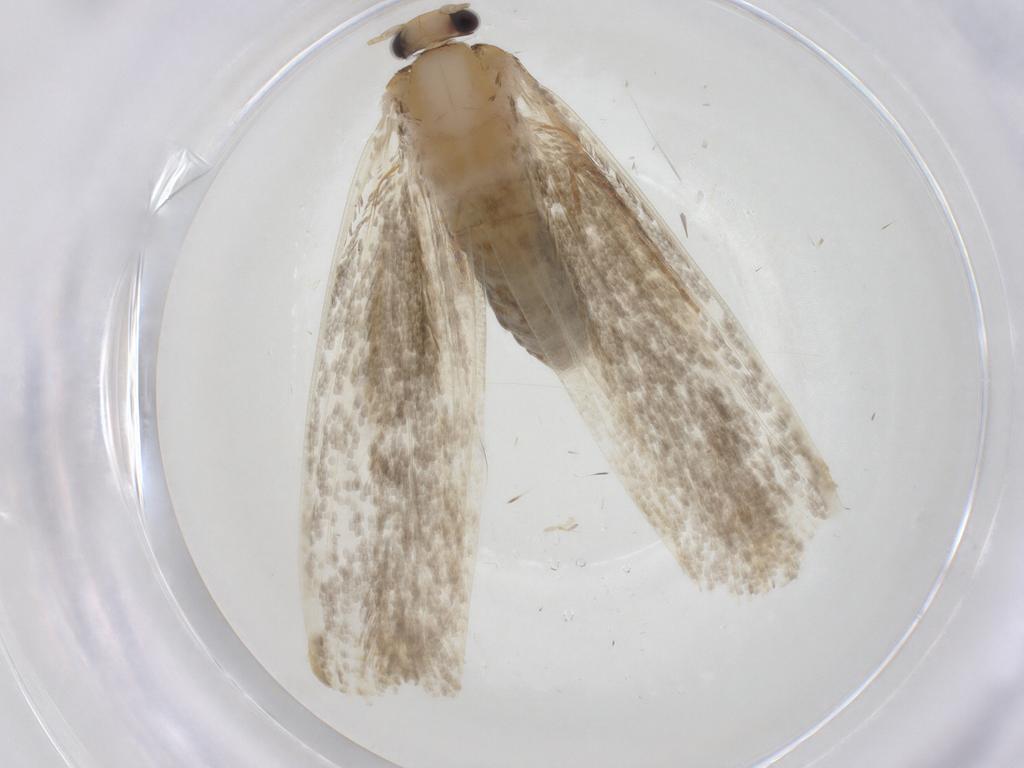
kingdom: Animalia
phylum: Arthropoda
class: Insecta
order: Lepidoptera
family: Tineidae
